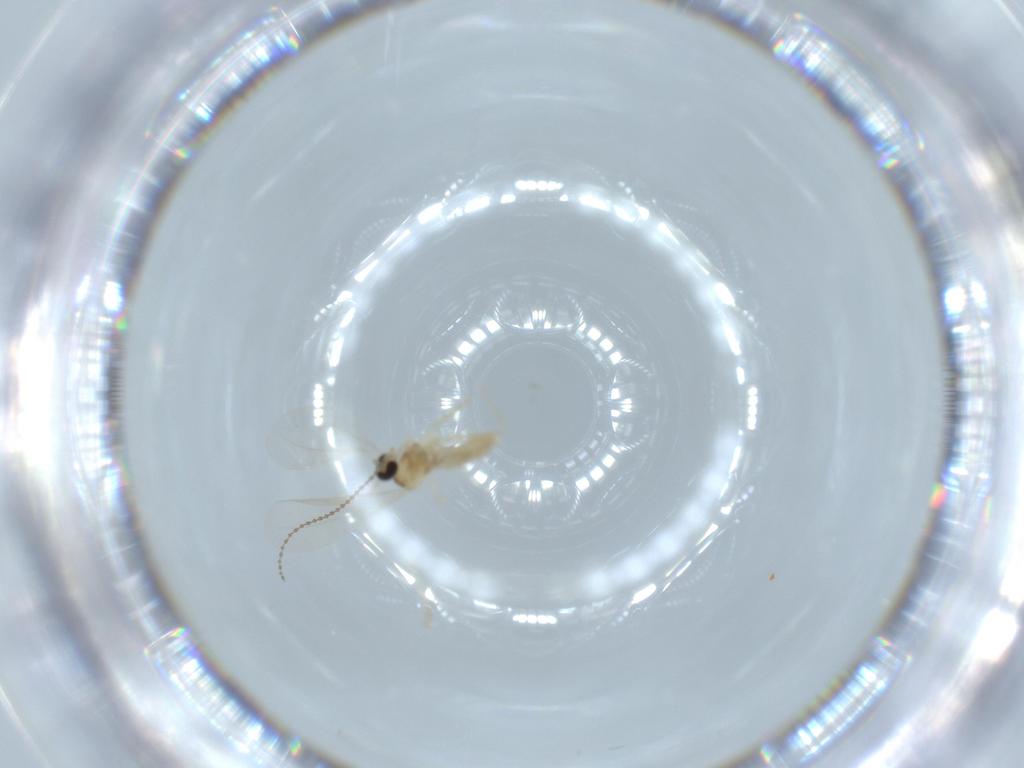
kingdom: Animalia
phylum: Arthropoda
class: Insecta
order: Diptera
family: Cecidomyiidae
